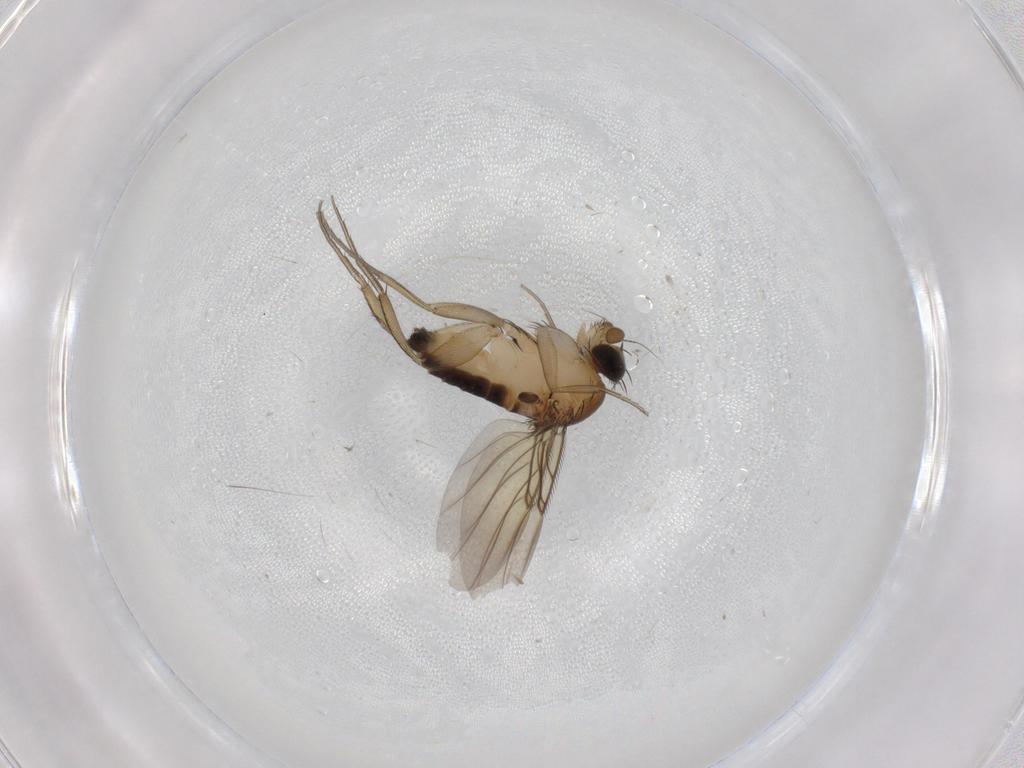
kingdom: Animalia
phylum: Arthropoda
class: Insecta
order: Diptera
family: Phoridae
